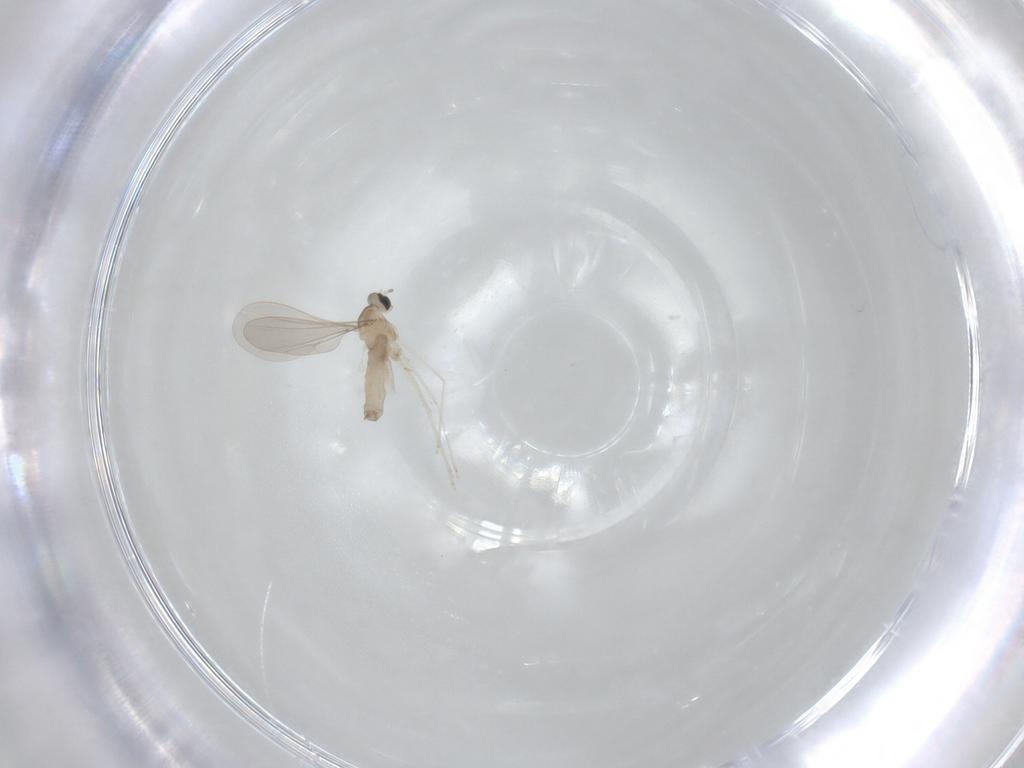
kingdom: Animalia
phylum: Arthropoda
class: Insecta
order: Diptera
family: Cecidomyiidae
